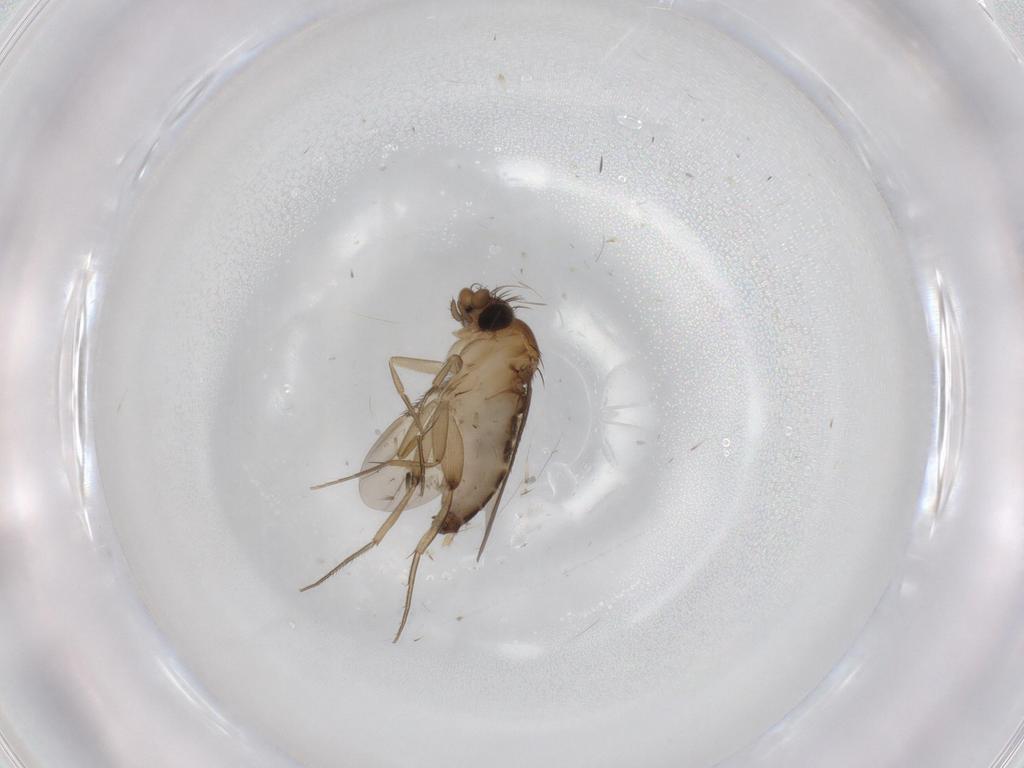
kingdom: Animalia
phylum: Arthropoda
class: Insecta
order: Diptera
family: Phoridae
